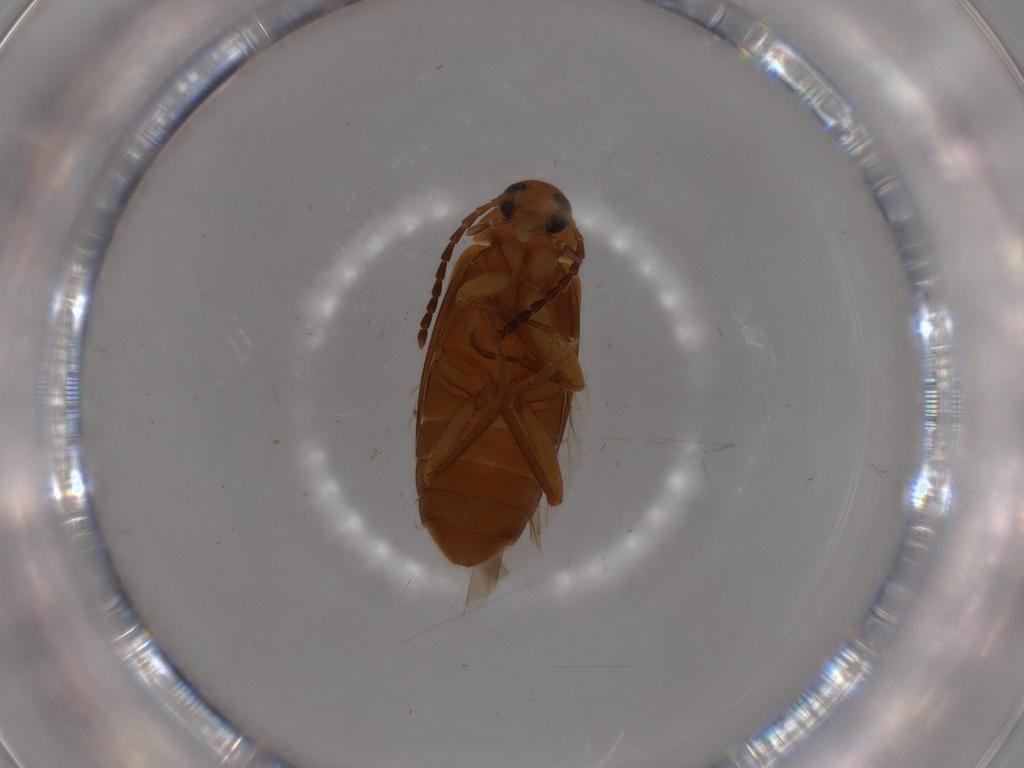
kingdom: Animalia
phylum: Arthropoda
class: Insecta
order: Coleoptera
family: Scraptiidae
